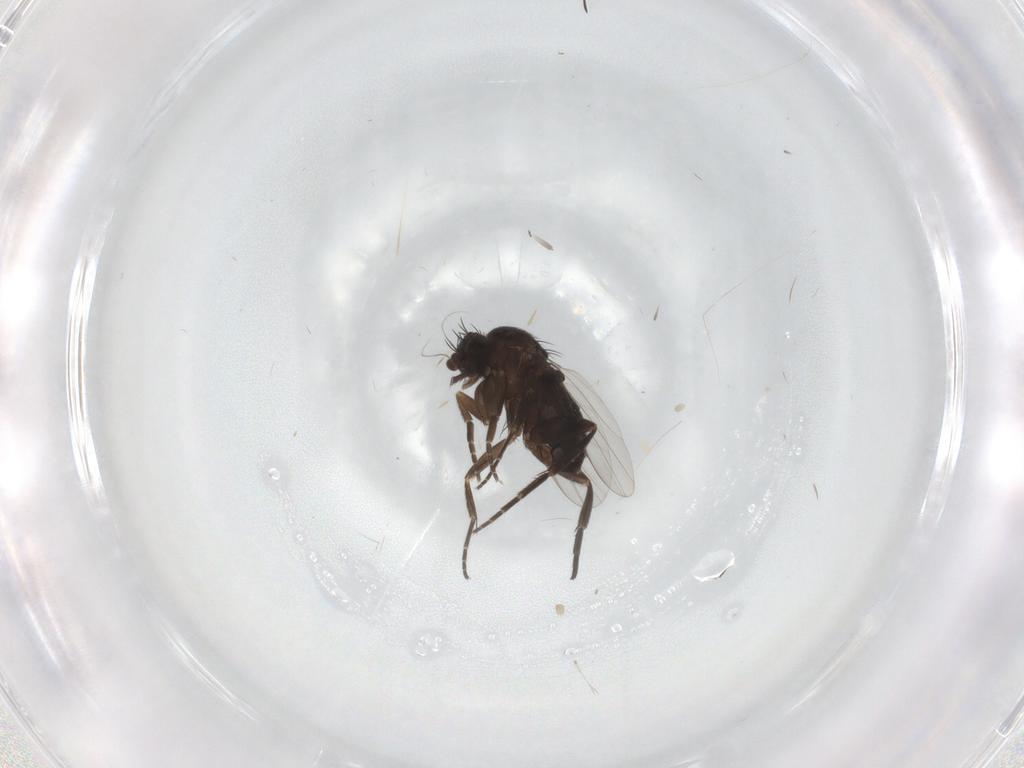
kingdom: Animalia
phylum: Arthropoda
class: Insecta
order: Diptera
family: Phoridae
